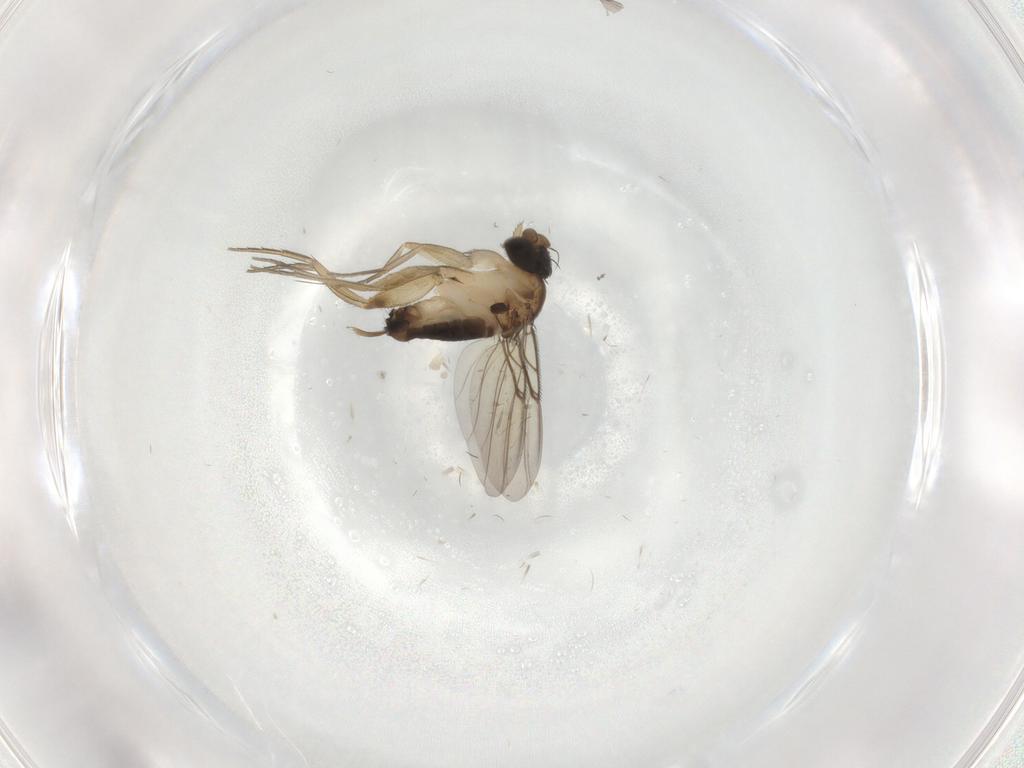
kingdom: Animalia
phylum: Arthropoda
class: Insecta
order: Diptera
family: Phoridae
